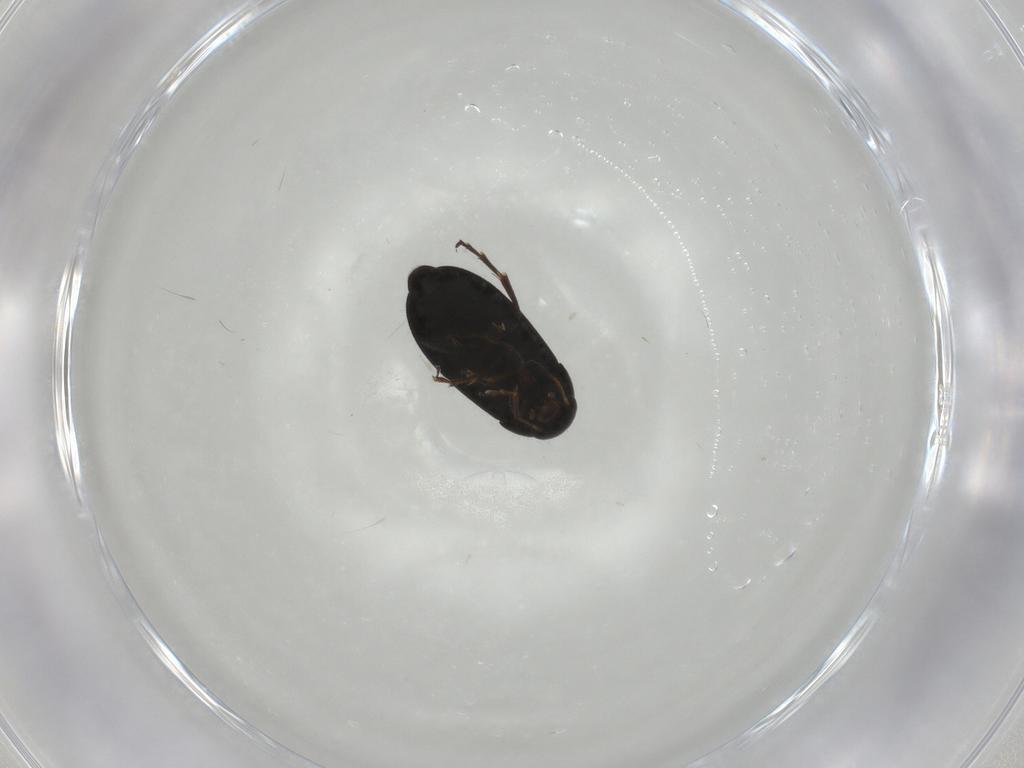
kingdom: Animalia
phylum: Arthropoda
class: Insecta
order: Coleoptera
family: Scraptiidae
